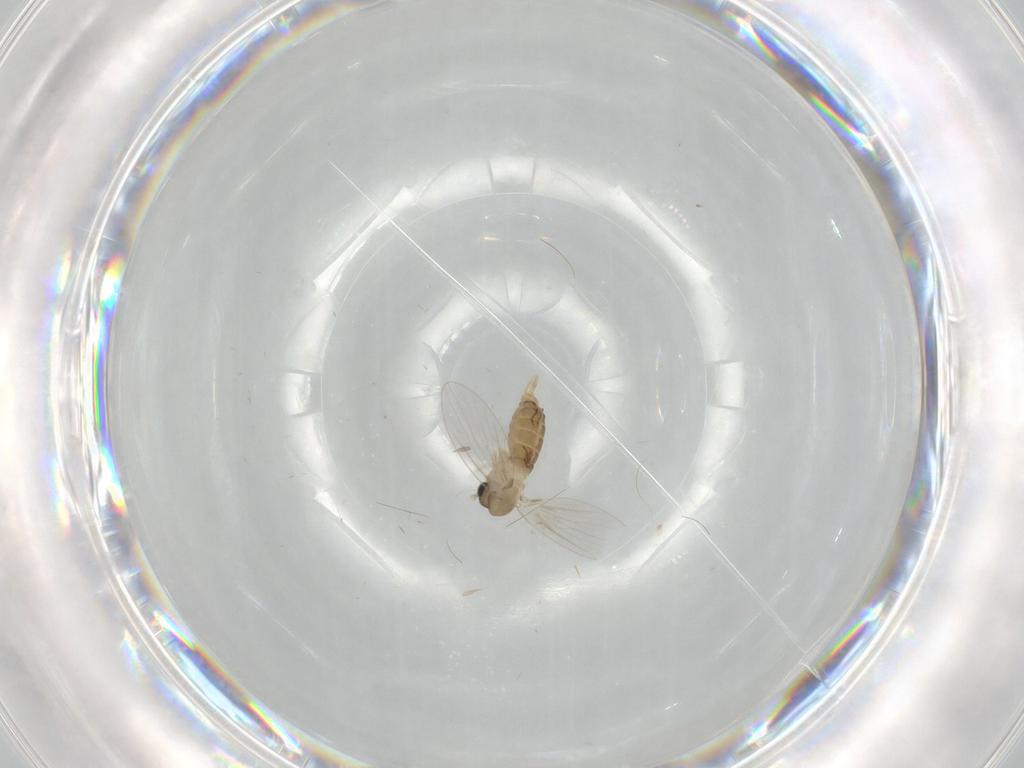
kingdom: Animalia
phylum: Arthropoda
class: Insecta
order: Diptera
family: Psychodidae
